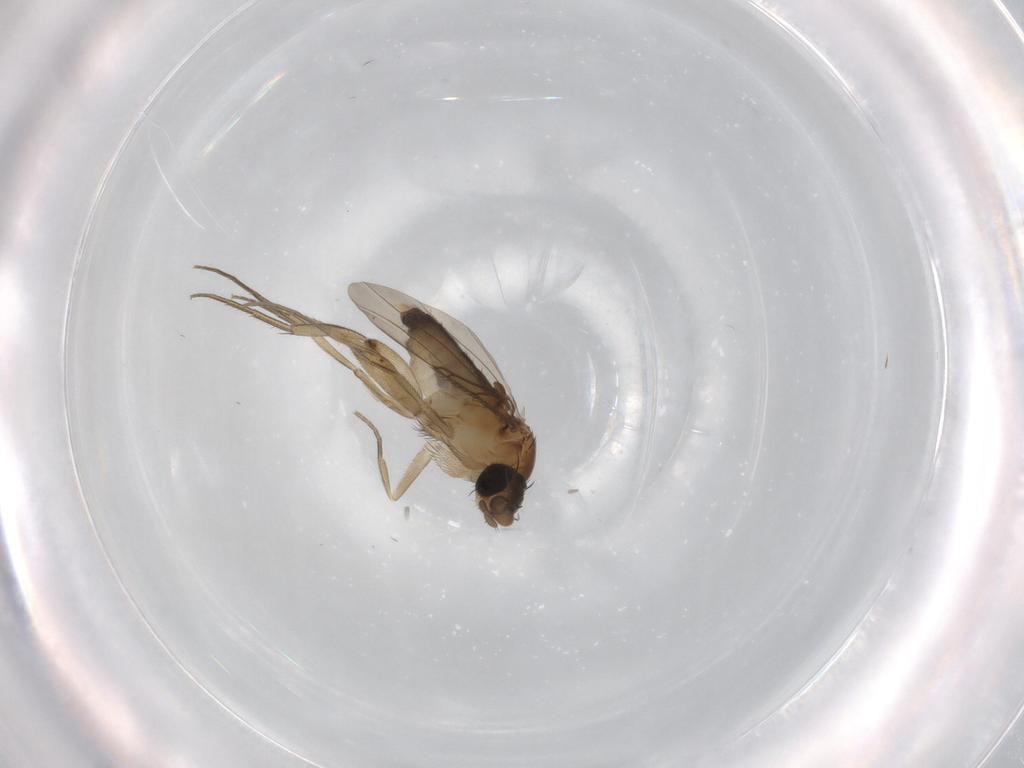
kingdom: Animalia
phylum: Arthropoda
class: Insecta
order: Diptera
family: Phoridae
